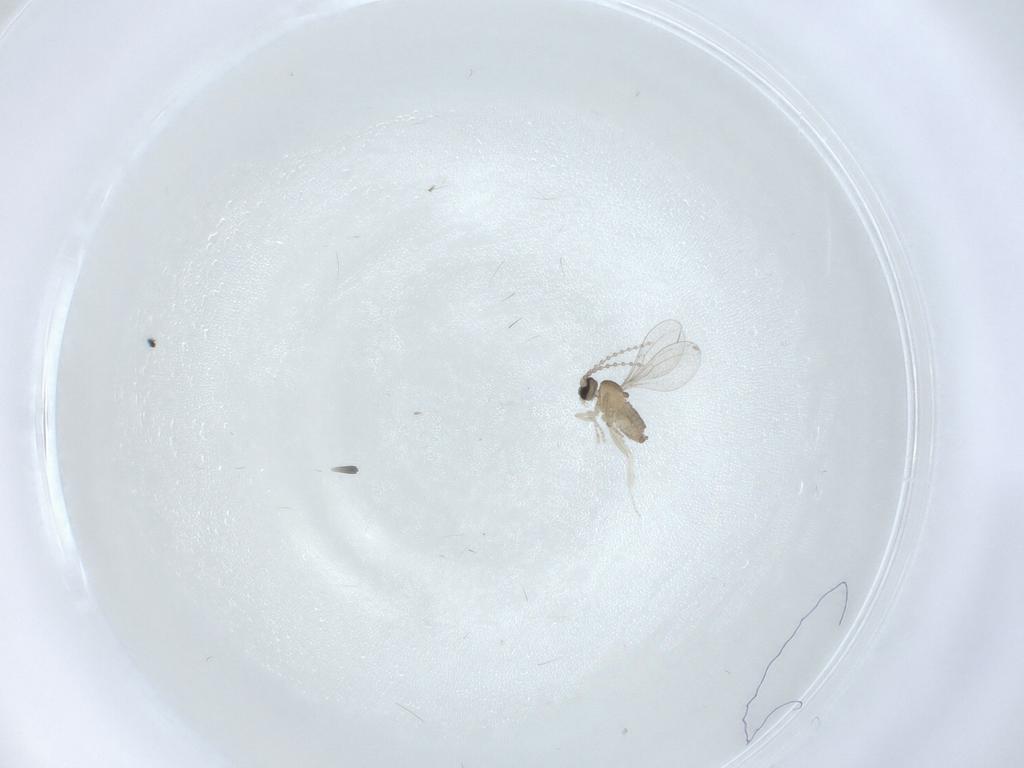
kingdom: Animalia
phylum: Arthropoda
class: Insecta
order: Diptera
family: Cecidomyiidae
